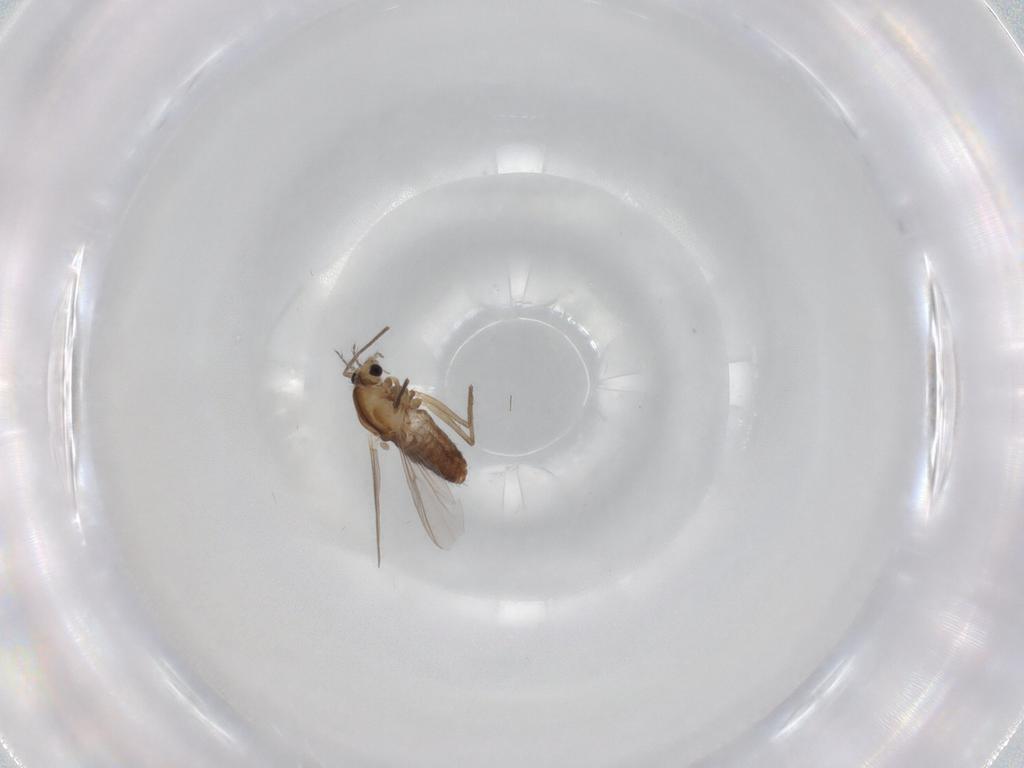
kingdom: Animalia
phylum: Arthropoda
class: Insecta
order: Diptera
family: Chironomidae
